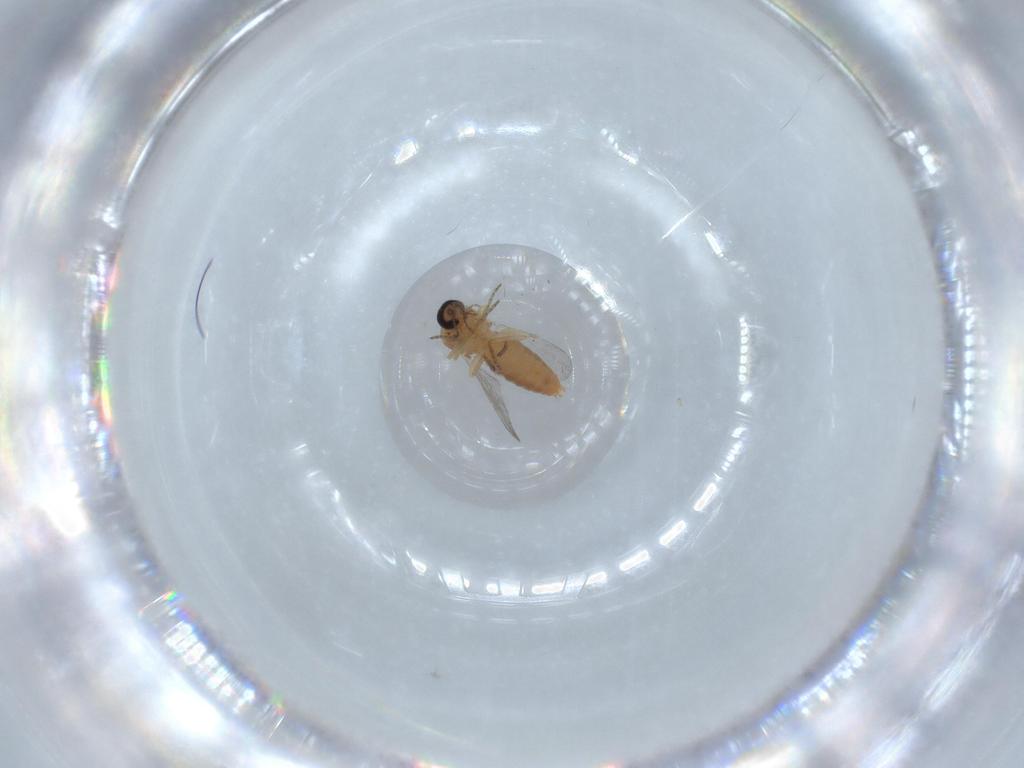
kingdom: Animalia
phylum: Arthropoda
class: Insecta
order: Diptera
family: Ceratopogonidae
